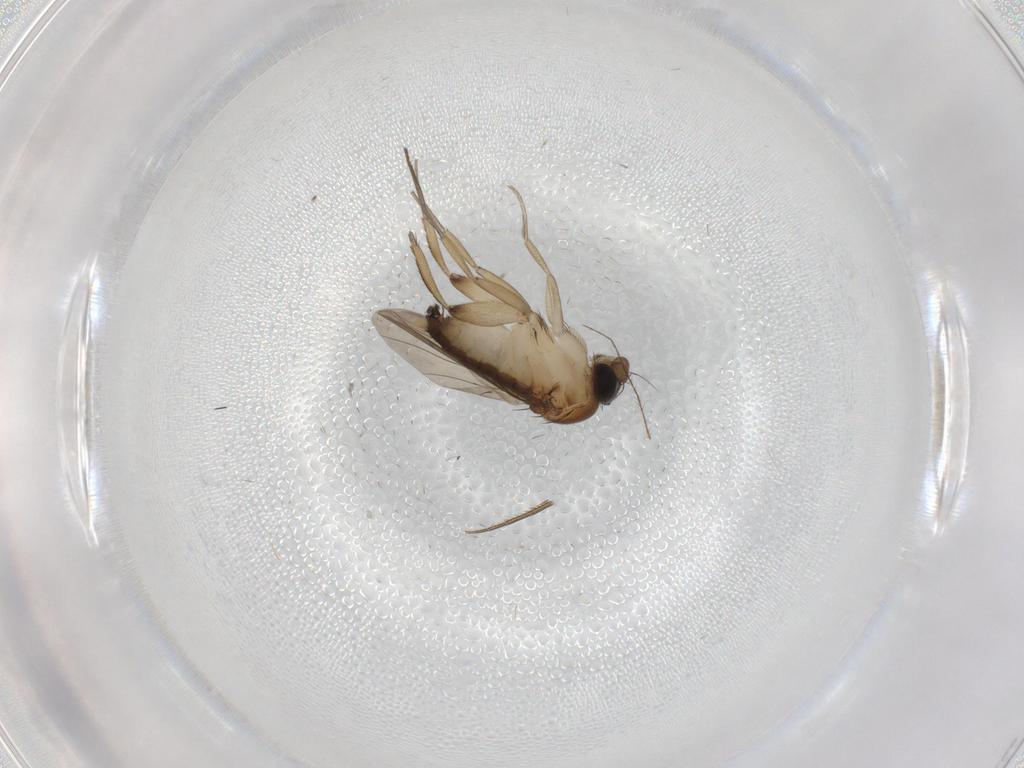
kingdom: Animalia
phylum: Arthropoda
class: Insecta
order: Diptera
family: Phoridae
